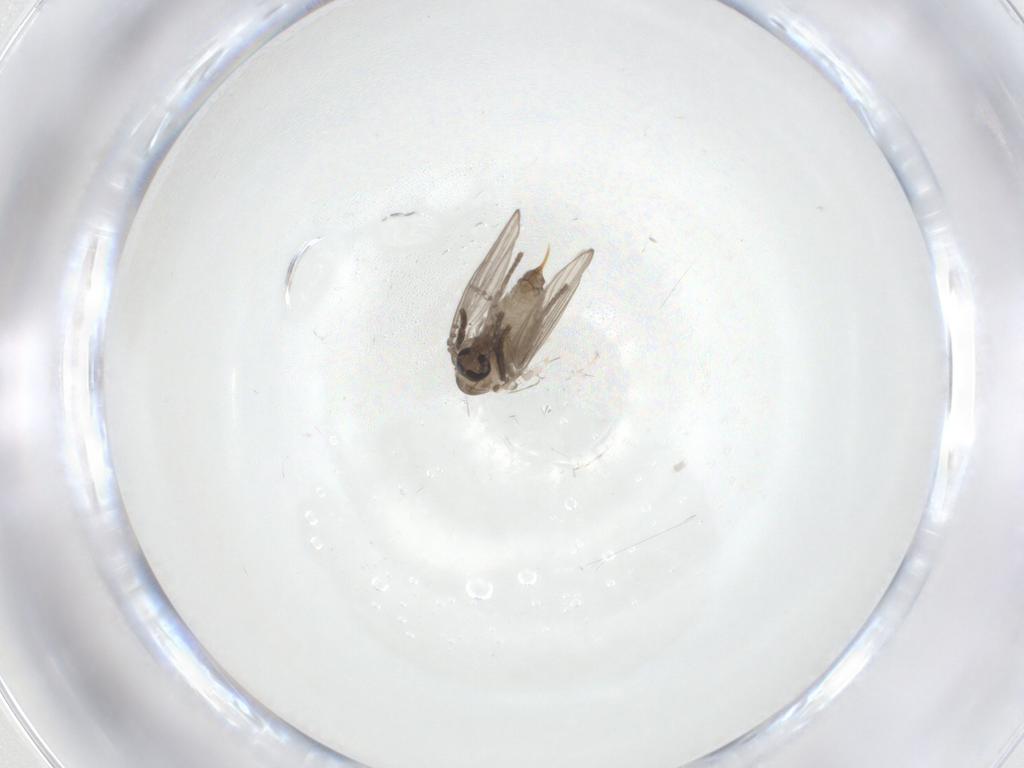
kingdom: Animalia
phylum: Arthropoda
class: Insecta
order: Diptera
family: Psychodidae
